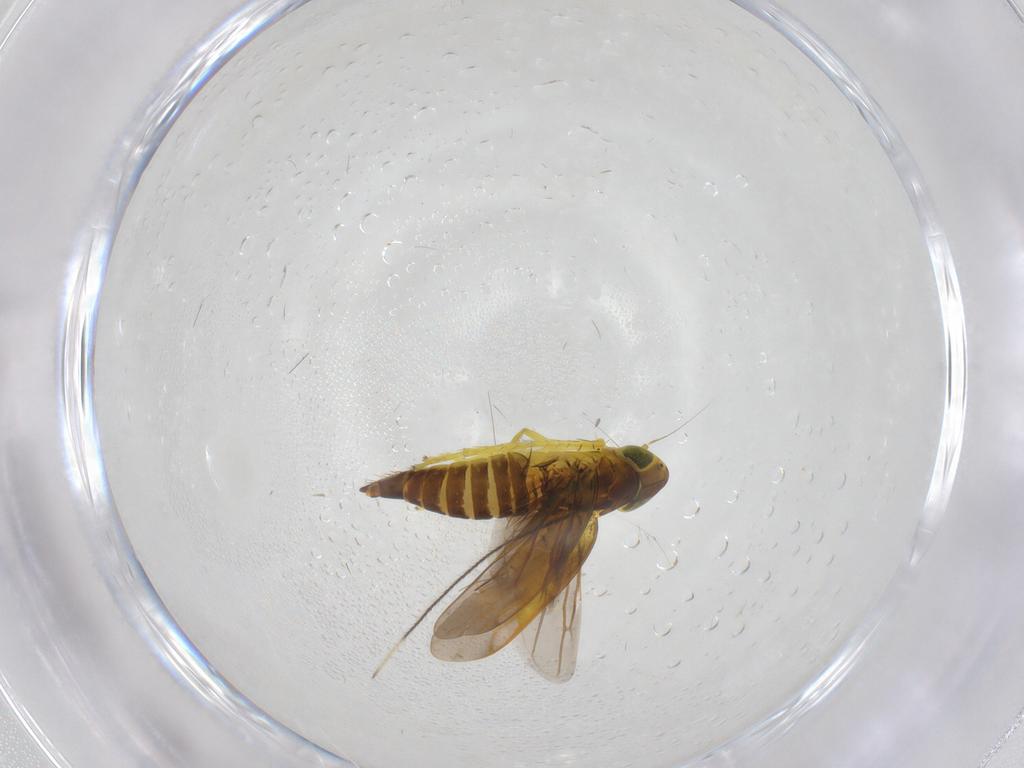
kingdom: Animalia
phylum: Arthropoda
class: Insecta
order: Hemiptera
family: Miridae
